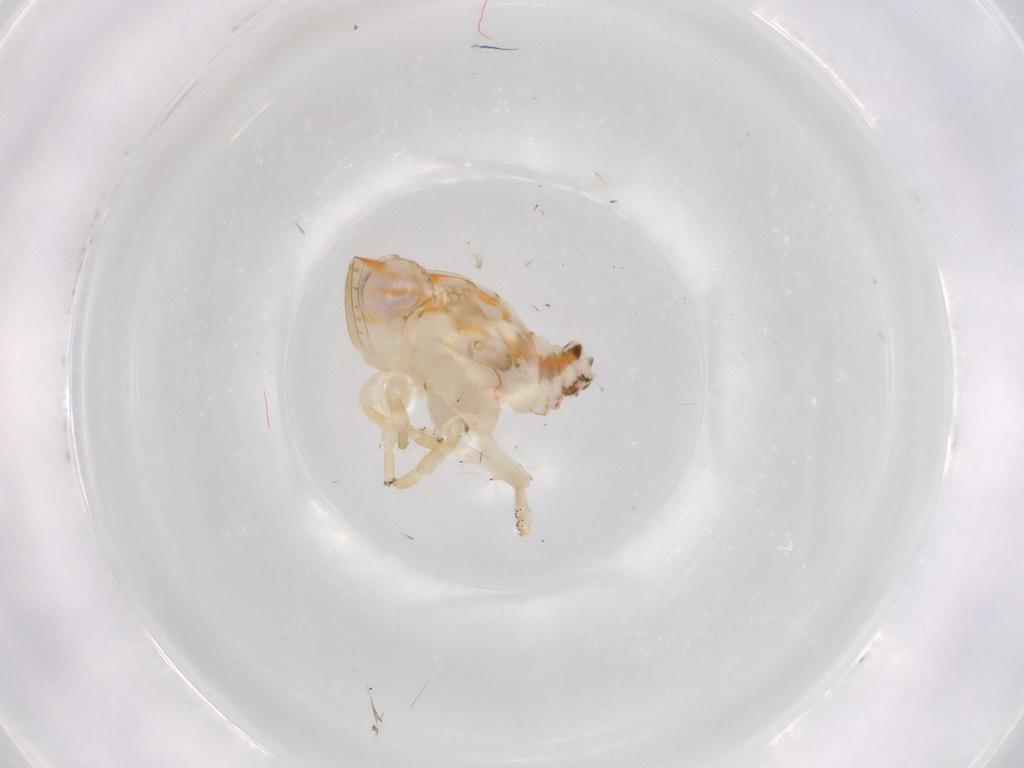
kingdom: Animalia
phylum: Arthropoda
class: Insecta
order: Hemiptera
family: Nogodinidae
